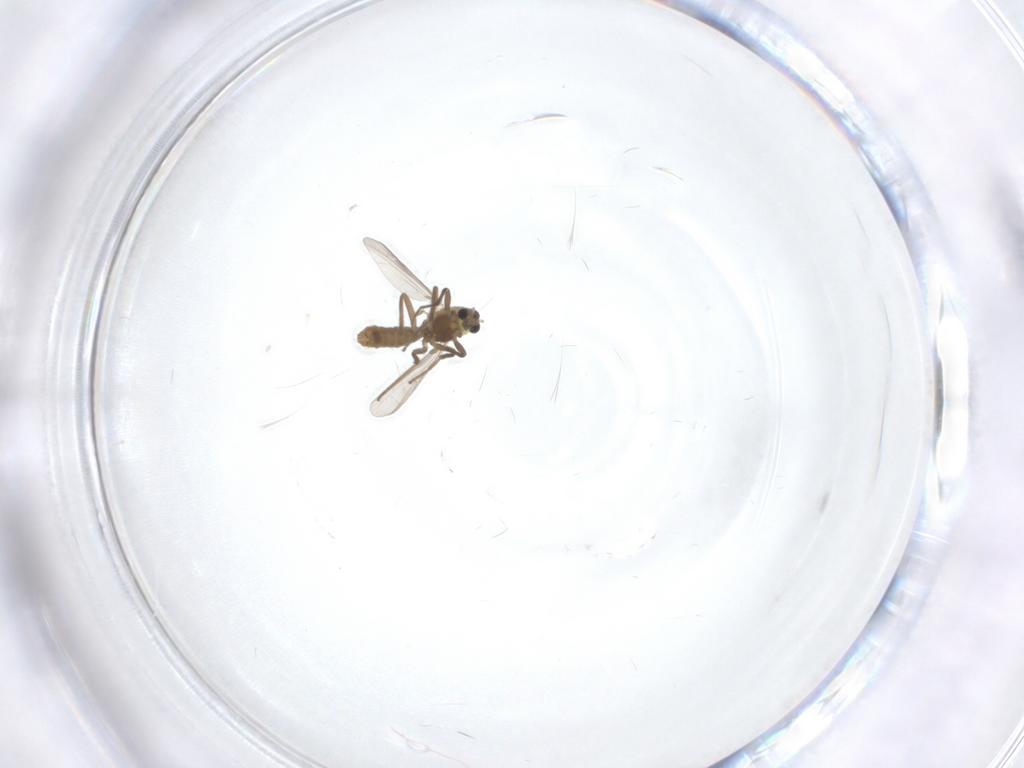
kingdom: Animalia
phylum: Arthropoda
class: Insecta
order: Diptera
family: Chironomidae
